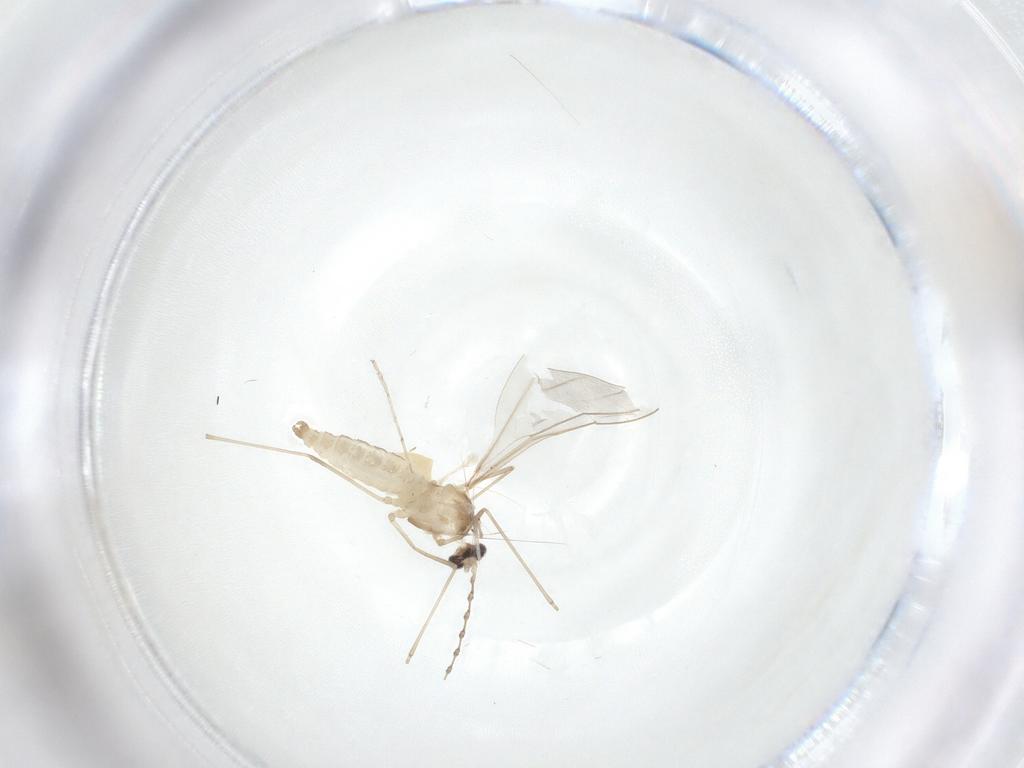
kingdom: Animalia
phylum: Arthropoda
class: Insecta
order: Diptera
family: Cecidomyiidae
